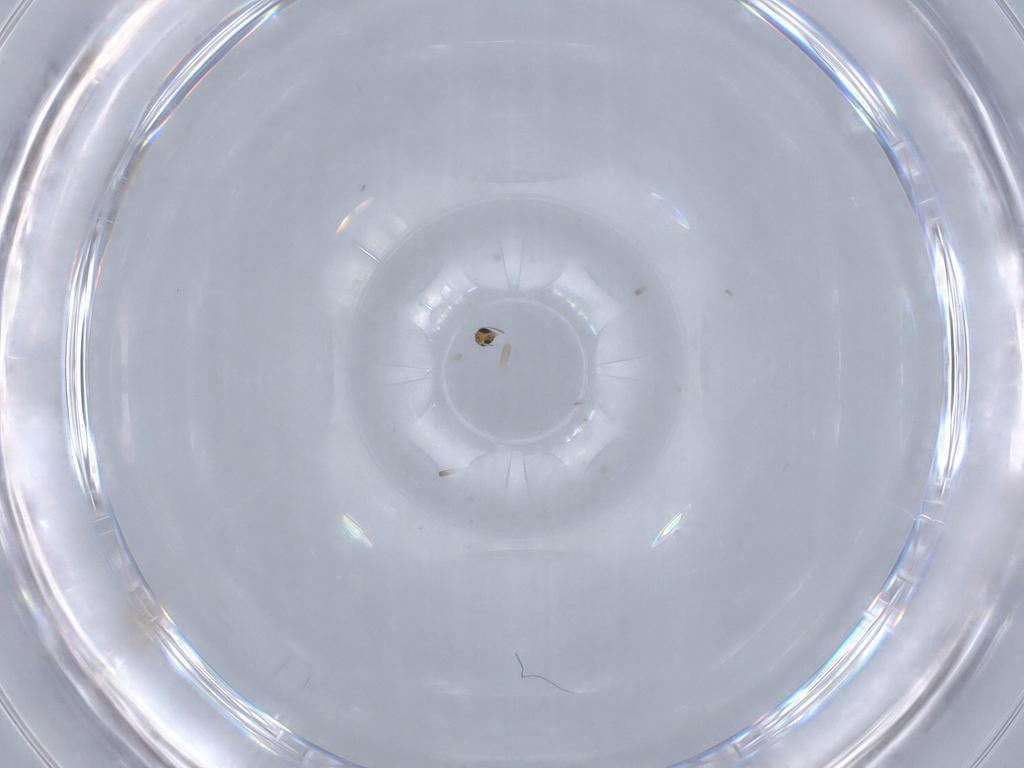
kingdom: Animalia
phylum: Arthropoda
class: Insecta
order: Hymenoptera
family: Trichogrammatidae
